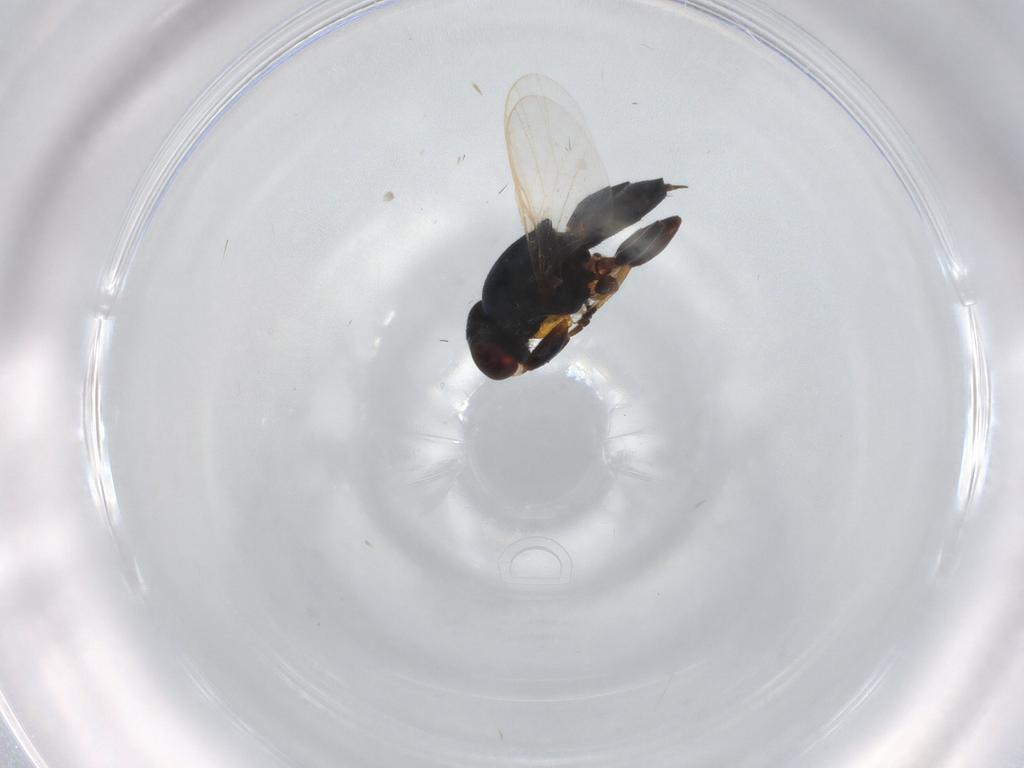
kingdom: Animalia
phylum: Arthropoda
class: Insecta
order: Diptera
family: Chloropidae
